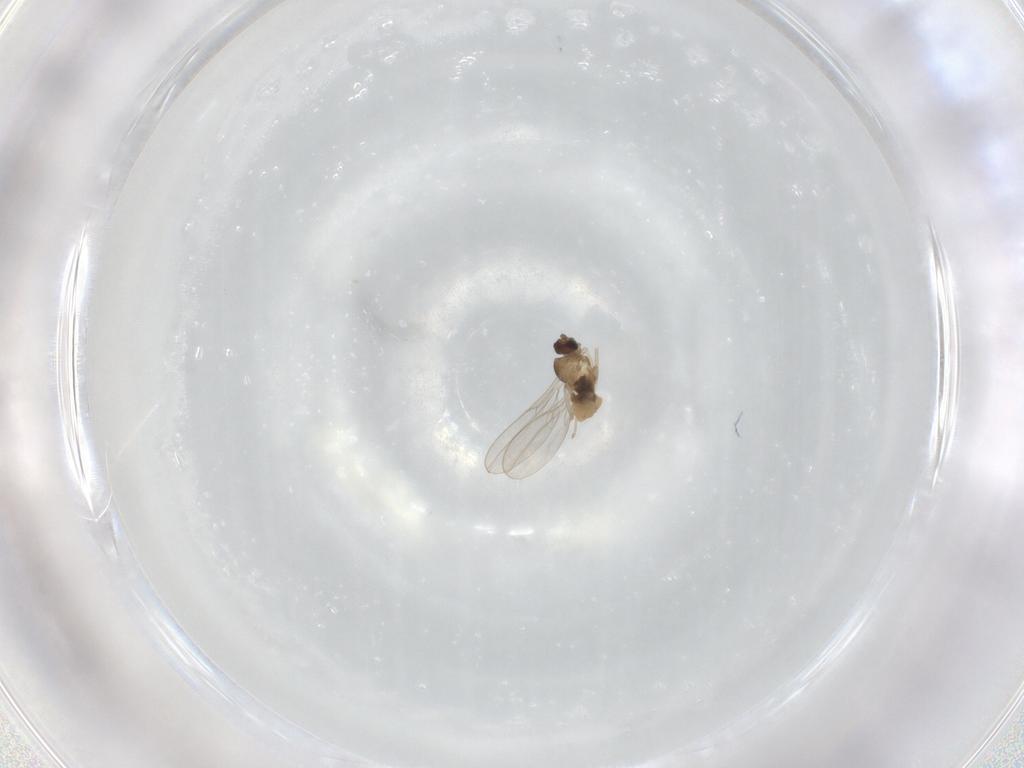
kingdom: Animalia
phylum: Arthropoda
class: Insecta
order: Diptera
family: Cecidomyiidae
